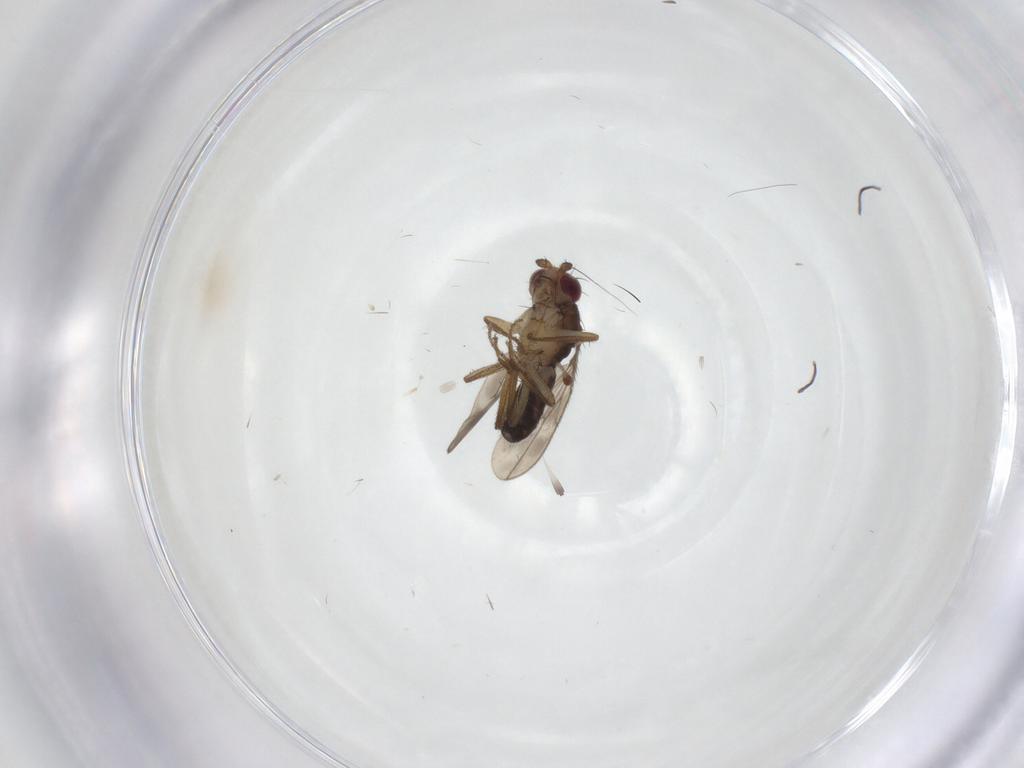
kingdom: Animalia
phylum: Arthropoda
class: Insecta
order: Diptera
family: Sphaeroceridae
